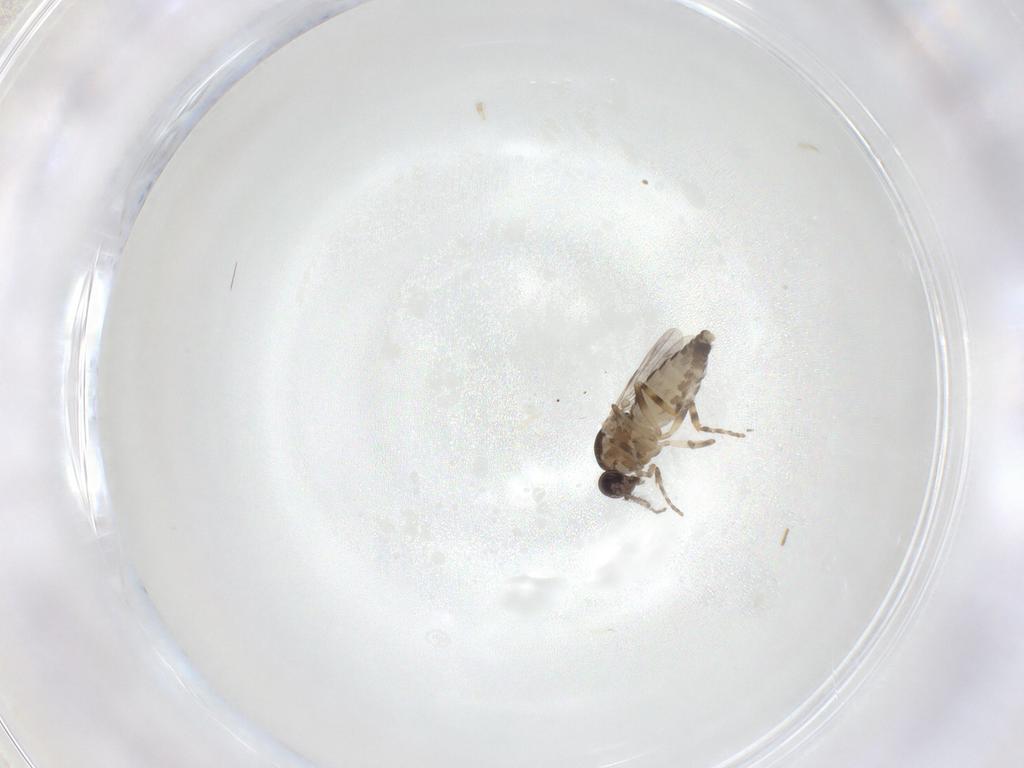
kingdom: Animalia
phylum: Arthropoda
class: Insecta
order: Diptera
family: Ceratopogonidae
